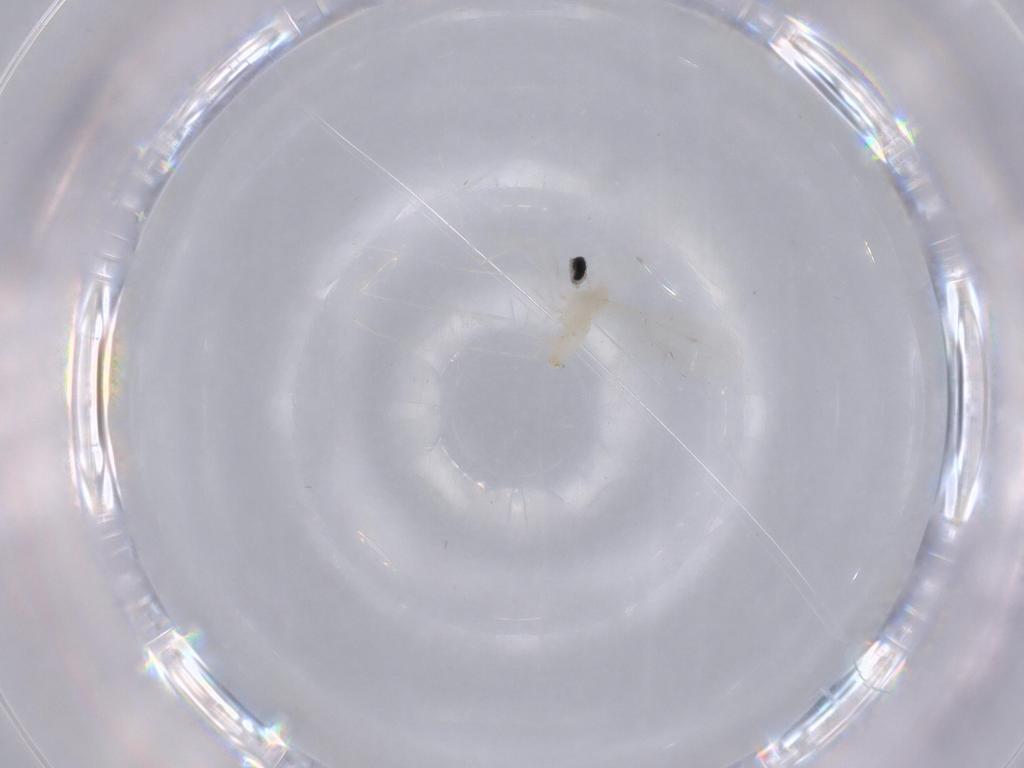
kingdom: Animalia
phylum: Arthropoda
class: Insecta
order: Diptera
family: Cecidomyiidae
